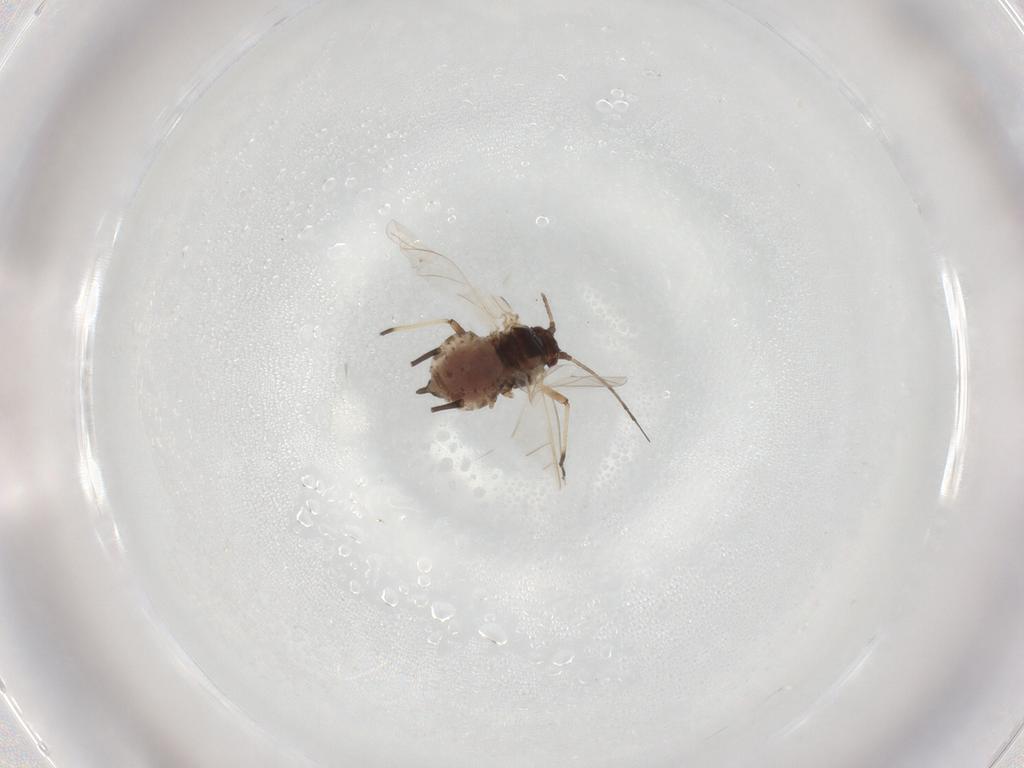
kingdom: Animalia
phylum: Arthropoda
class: Insecta
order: Hemiptera
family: Aphididae
